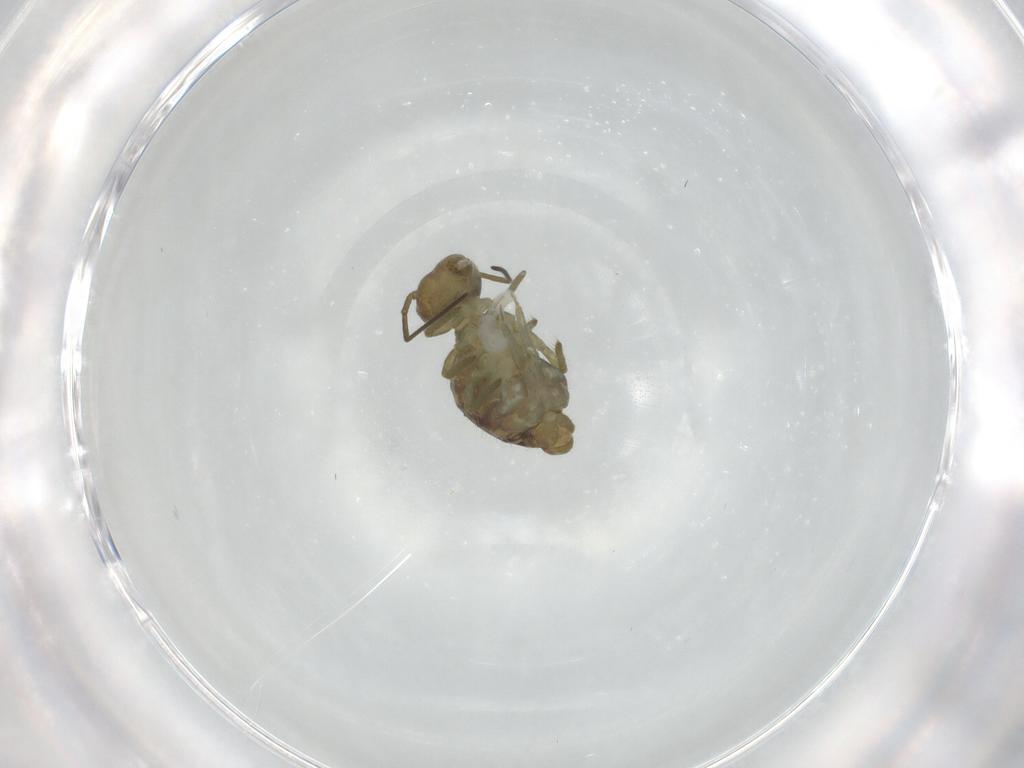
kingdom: Animalia
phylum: Arthropoda
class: Collembola
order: Symphypleona
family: Sminthuridae
